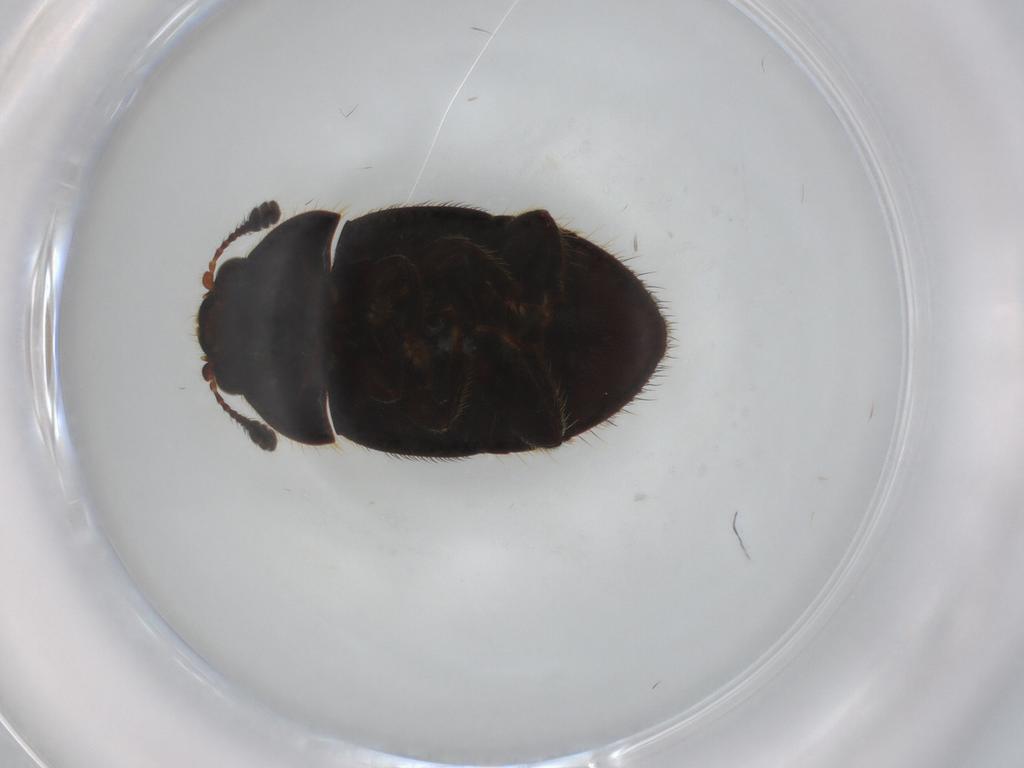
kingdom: Animalia
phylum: Arthropoda
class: Insecta
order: Coleoptera
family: Nitidulidae
